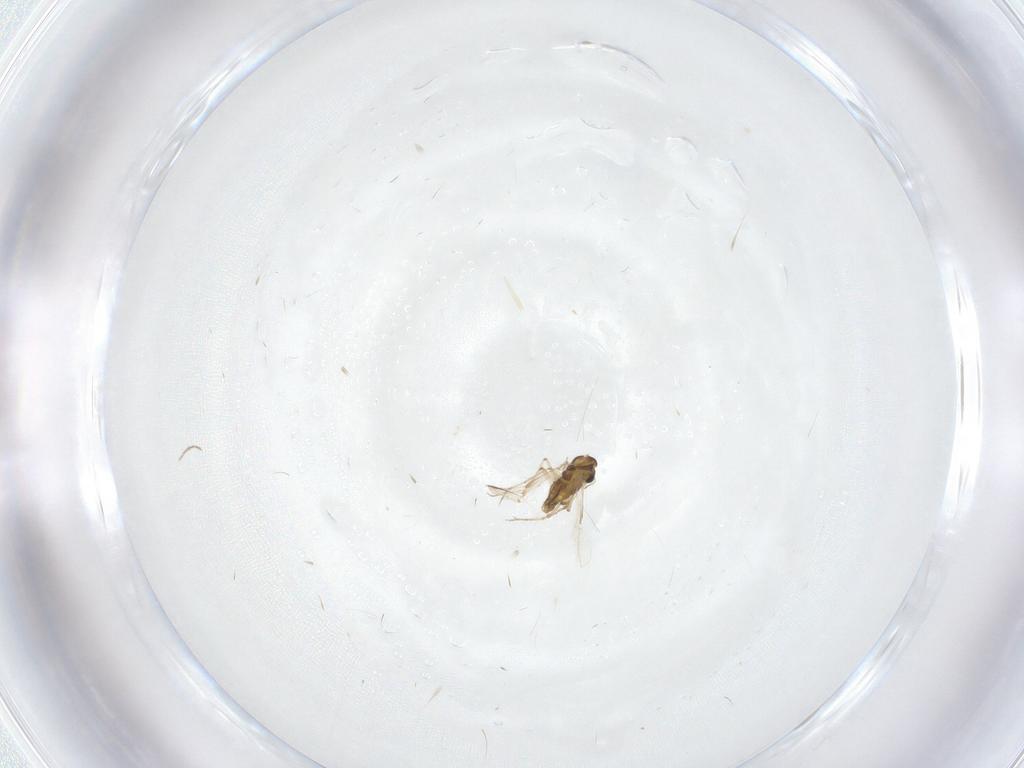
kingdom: Animalia
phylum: Arthropoda
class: Insecta
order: Diptera
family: Chironomidae
